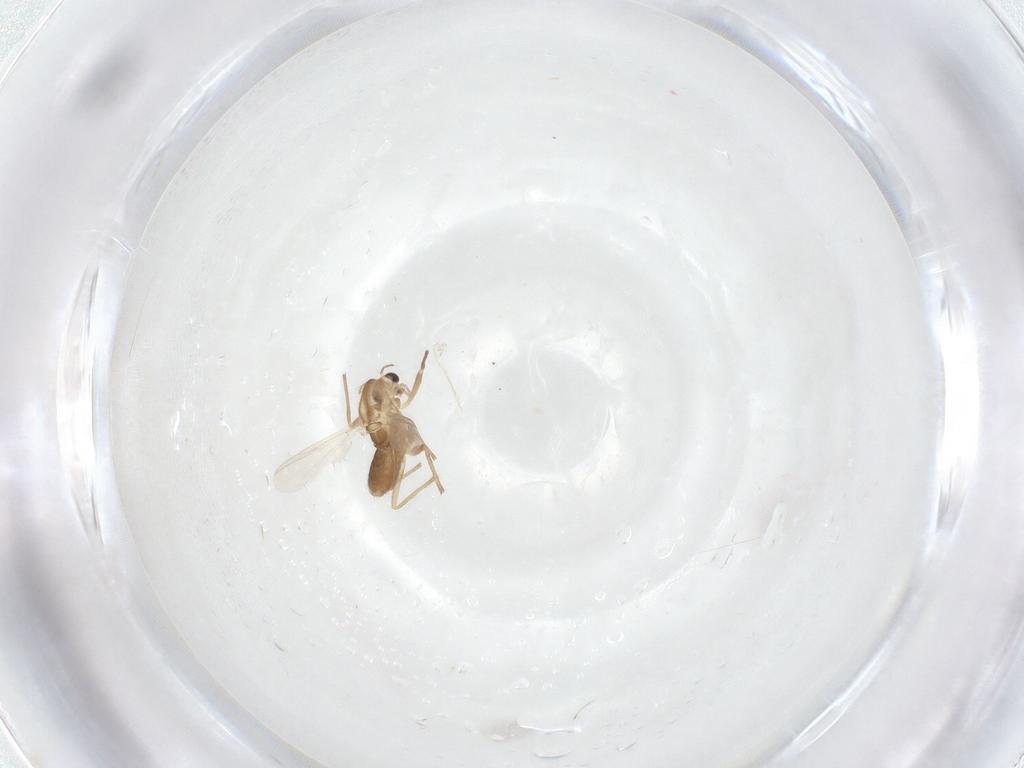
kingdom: Animalia
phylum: Arthropoda
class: Insecta
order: Diptera
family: Chironomidae
